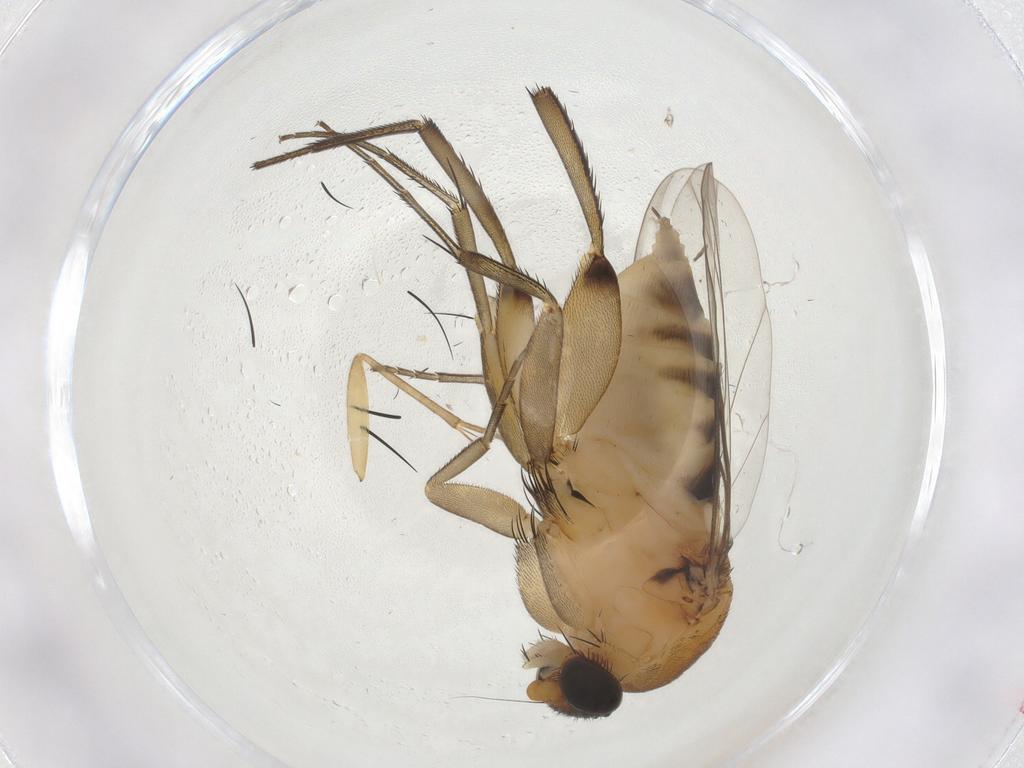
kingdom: Animalia
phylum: Arthropoda
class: Insecta
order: Diptera
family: Phoridae
